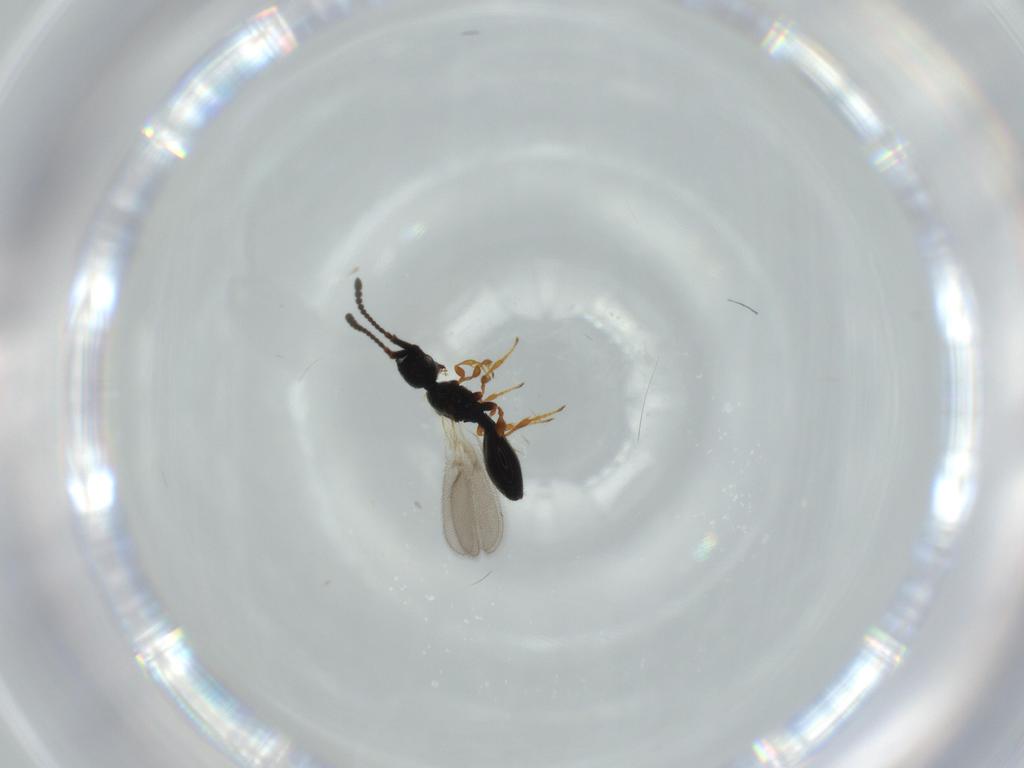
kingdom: Animalia
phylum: Arthropoda
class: Insecta
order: Hymenoptera
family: Diapriidae
